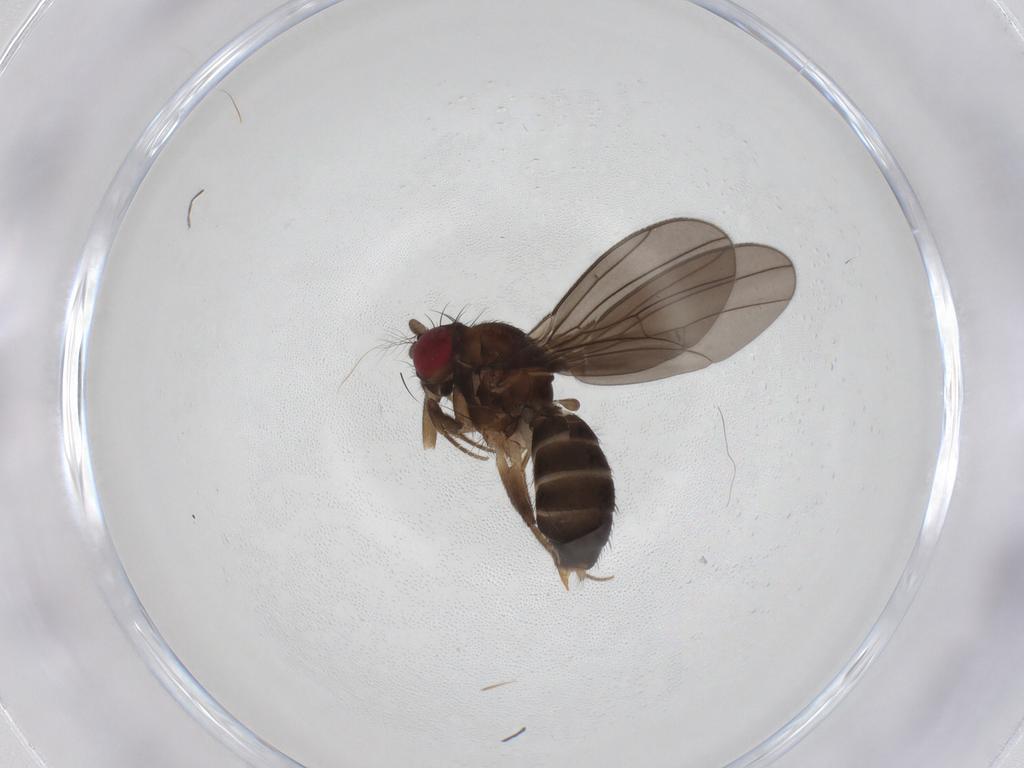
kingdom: Animalia
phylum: Arthropoda
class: Insecta
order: Diptera
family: Drosophilidae
